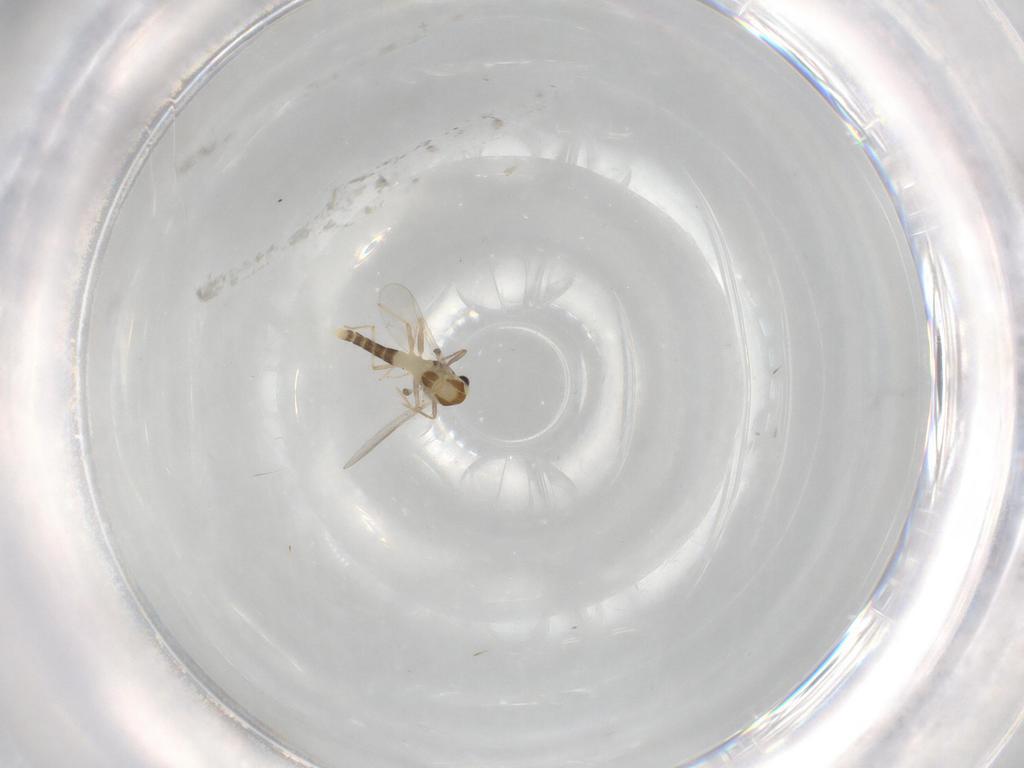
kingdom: Animalia
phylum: Arthropoda
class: Insecta
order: Diptera
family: Chironomidae
